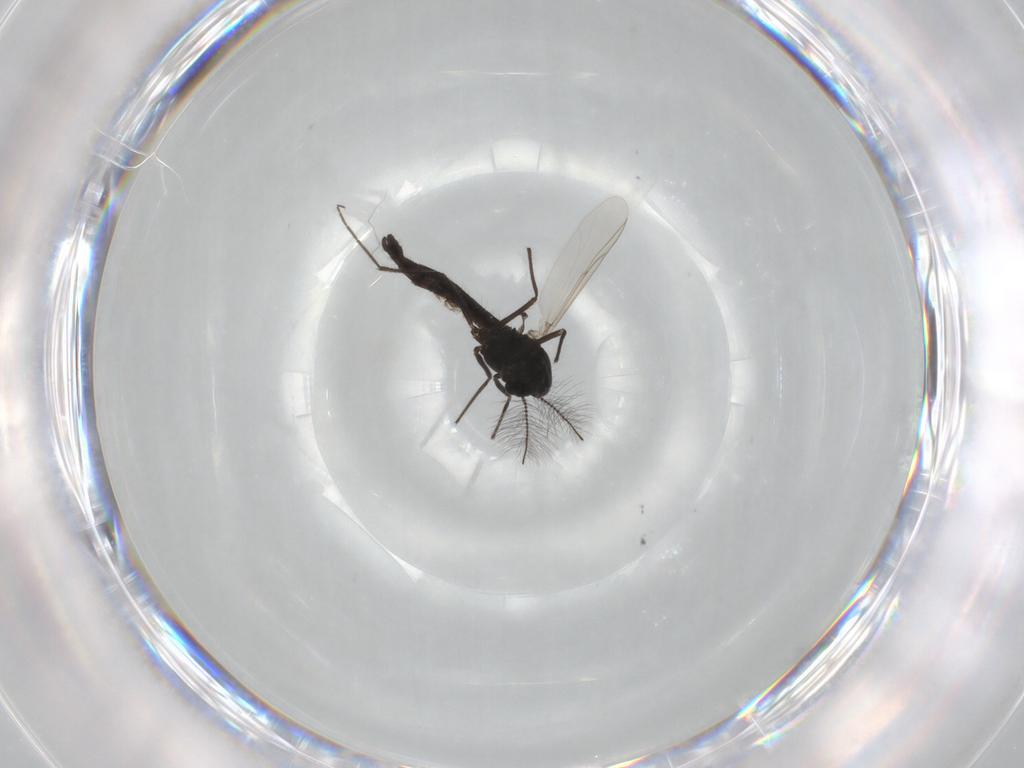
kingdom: Animalia
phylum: Arthropoda
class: Insecta
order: Diptera
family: Chironomidae
